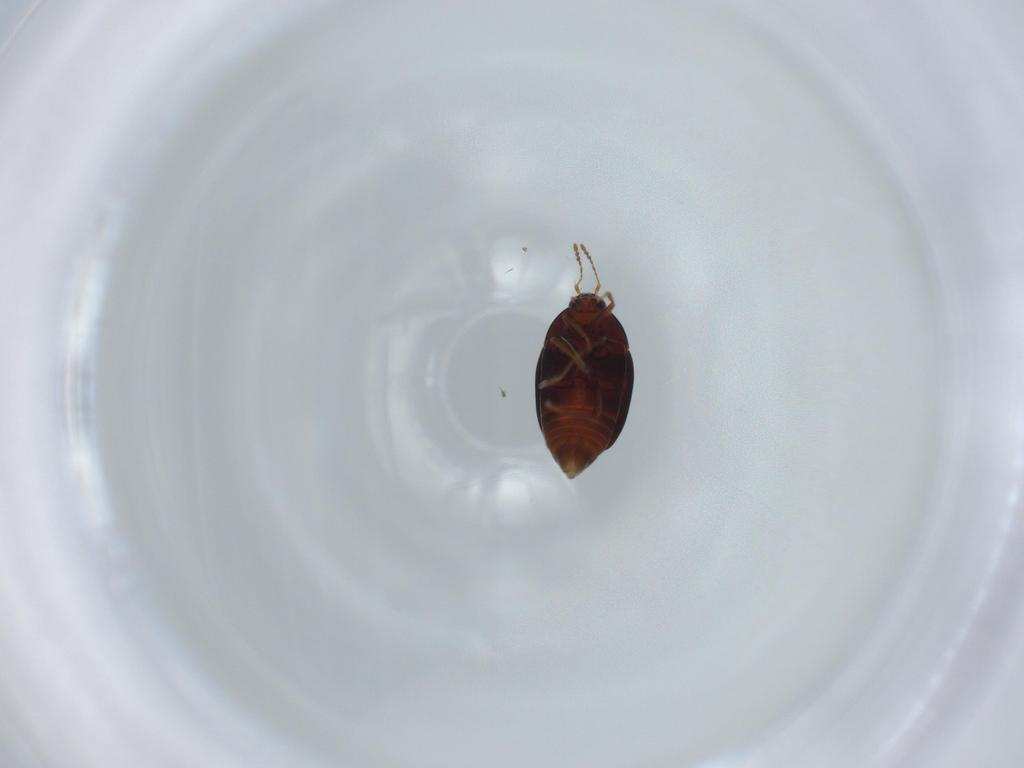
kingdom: Animalia
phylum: Arthropoda
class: Insecta
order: Coleoptera
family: Staphylinidae
